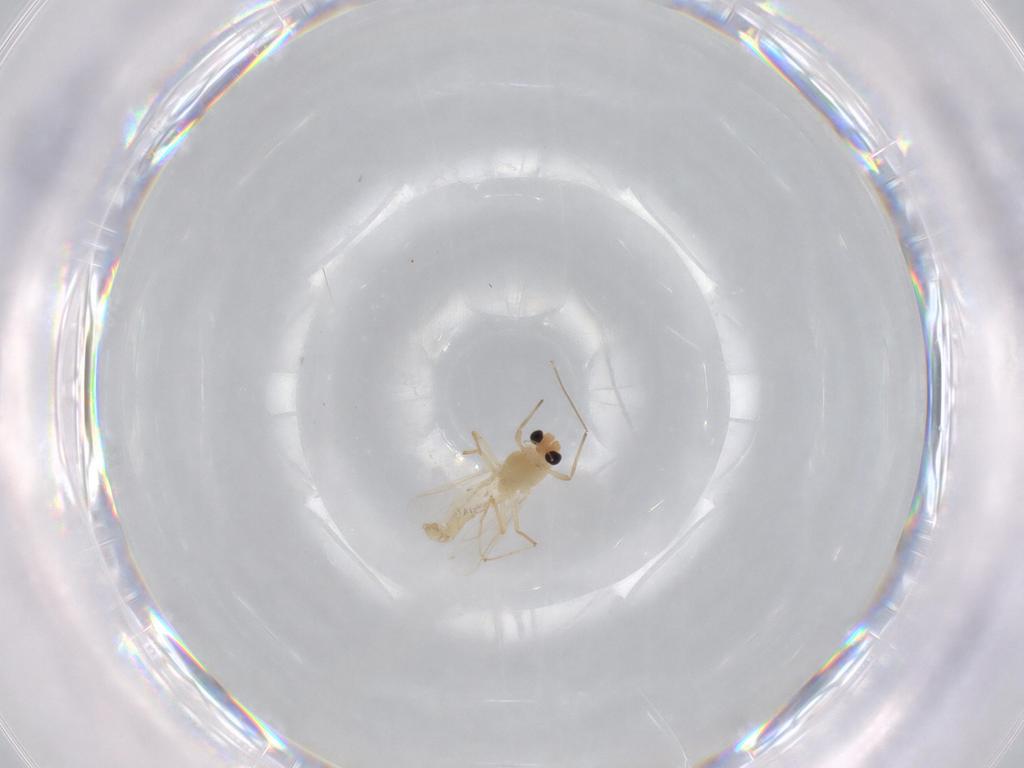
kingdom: Animalia
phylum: Arthropoda
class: Insecta
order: Diptera
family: Chironomidae
